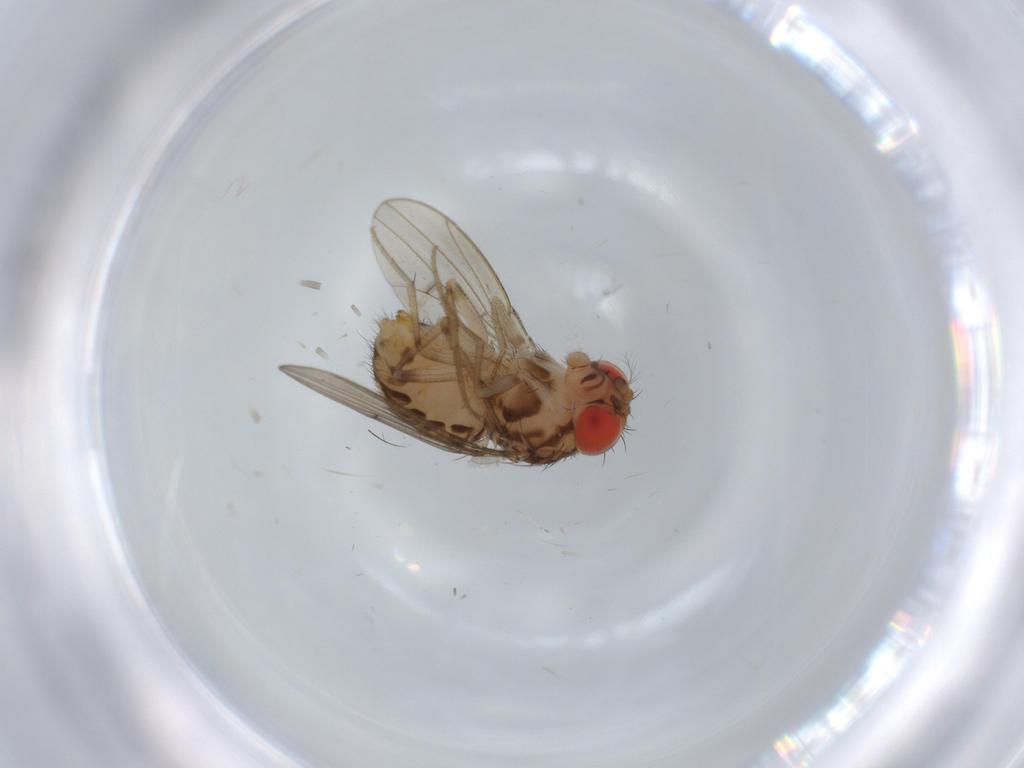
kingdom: Animalia
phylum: Arthropoda
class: Insecta
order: Diptera
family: Drosophilidae
